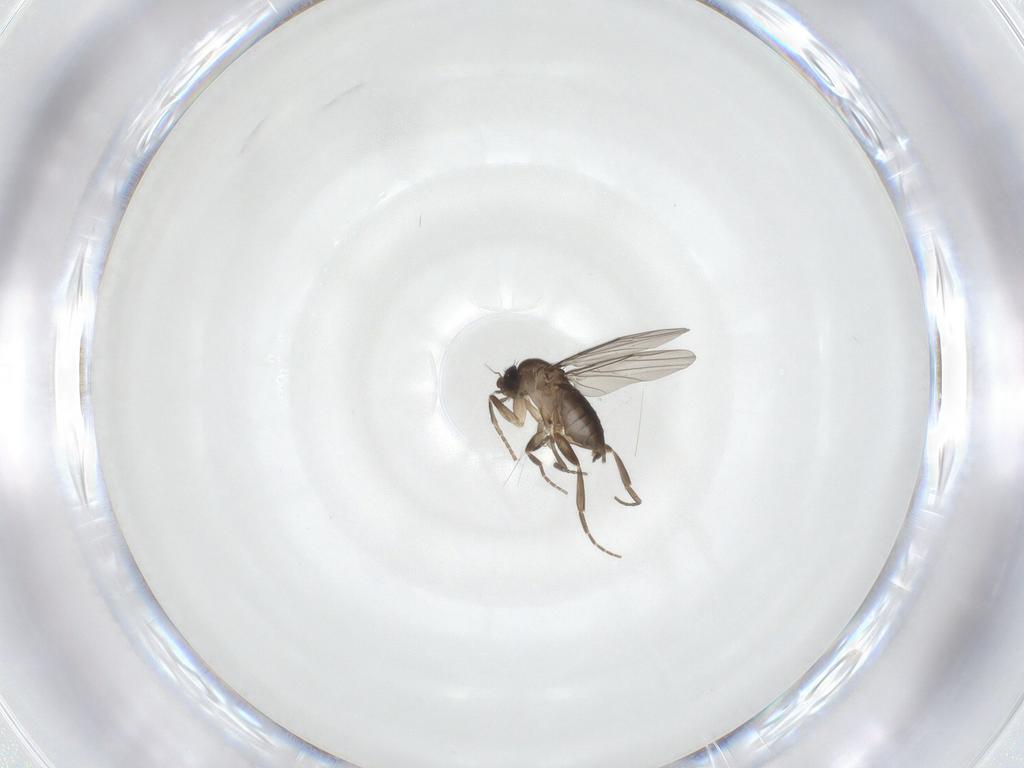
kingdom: Animalia
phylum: Arthropoda
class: Insecta
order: Diptera
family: Phoridae
